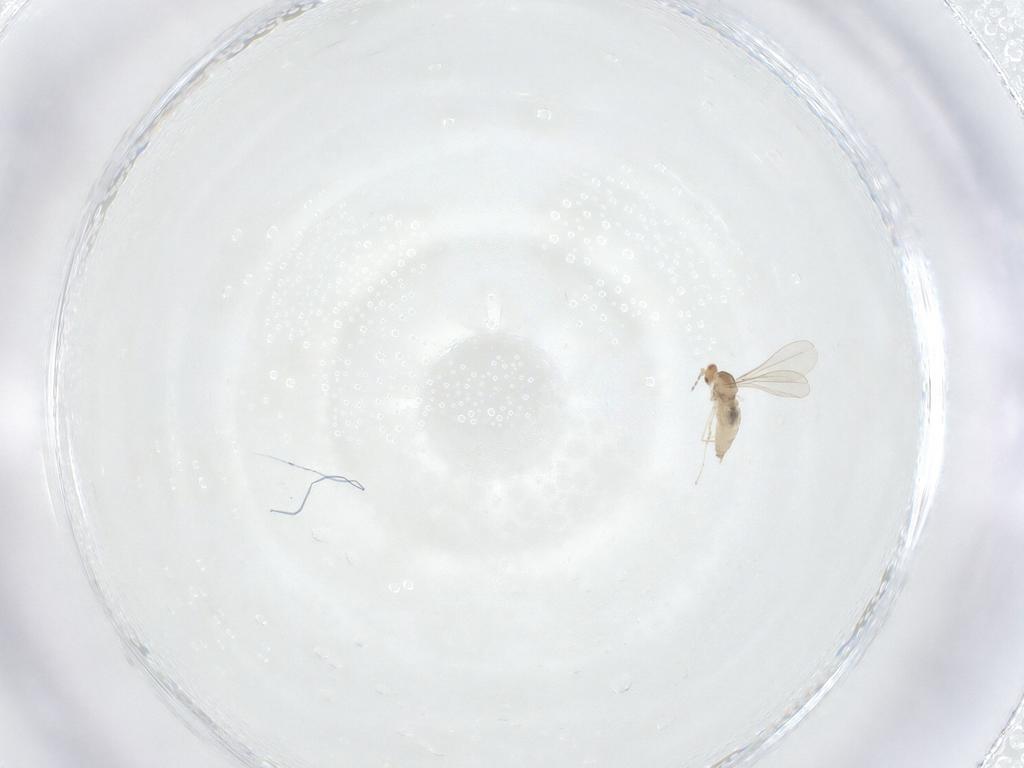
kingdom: Animalia
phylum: Arthropoda
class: Insecta
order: Diptera
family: Cecidomyiidae
